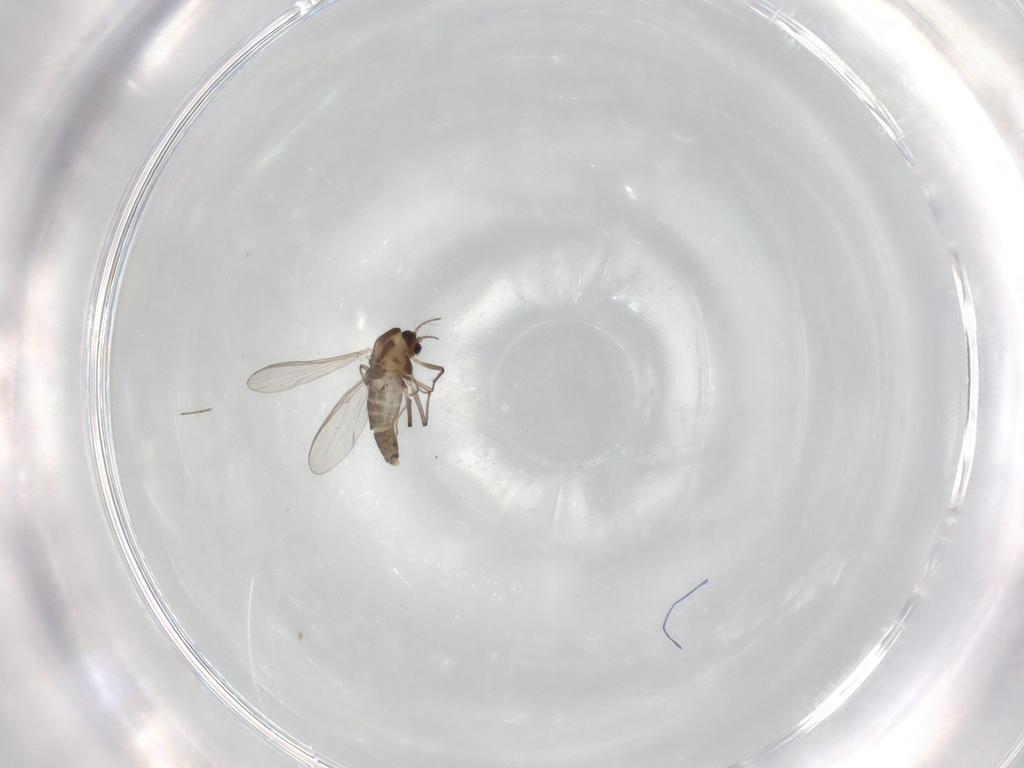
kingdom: Animalia
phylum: Arthropoda
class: Insecta
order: Diptera
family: Chironomidae
